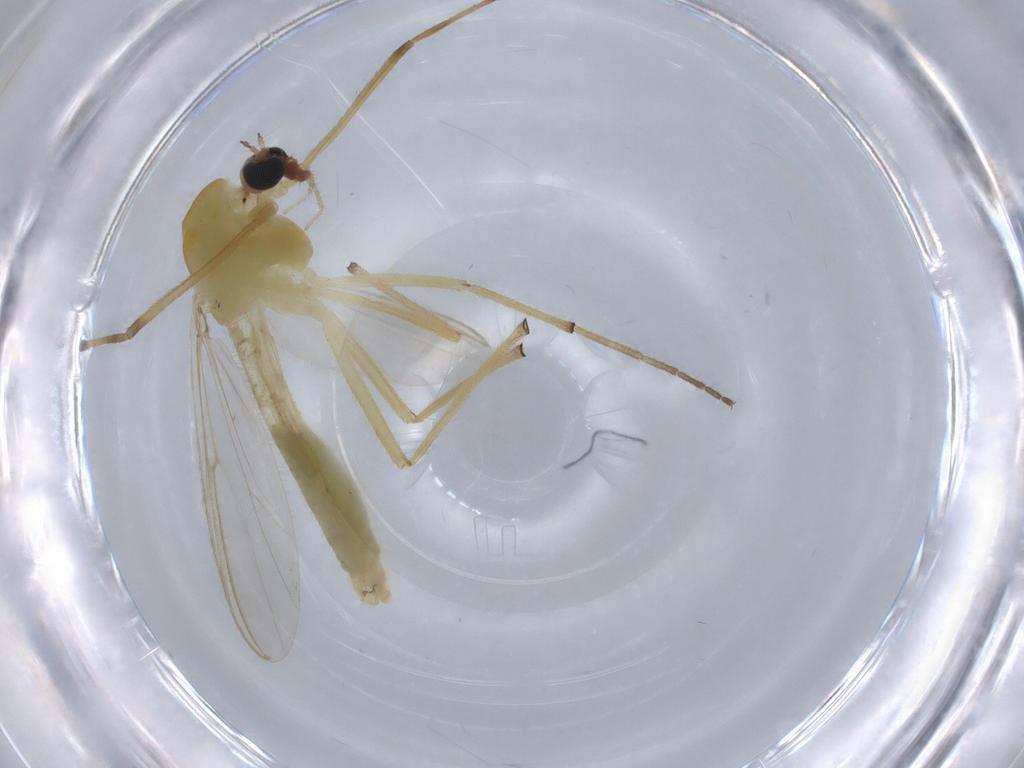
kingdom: Animalia
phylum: Arthropoda
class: Insecta
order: Diptera
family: Chironomidae
